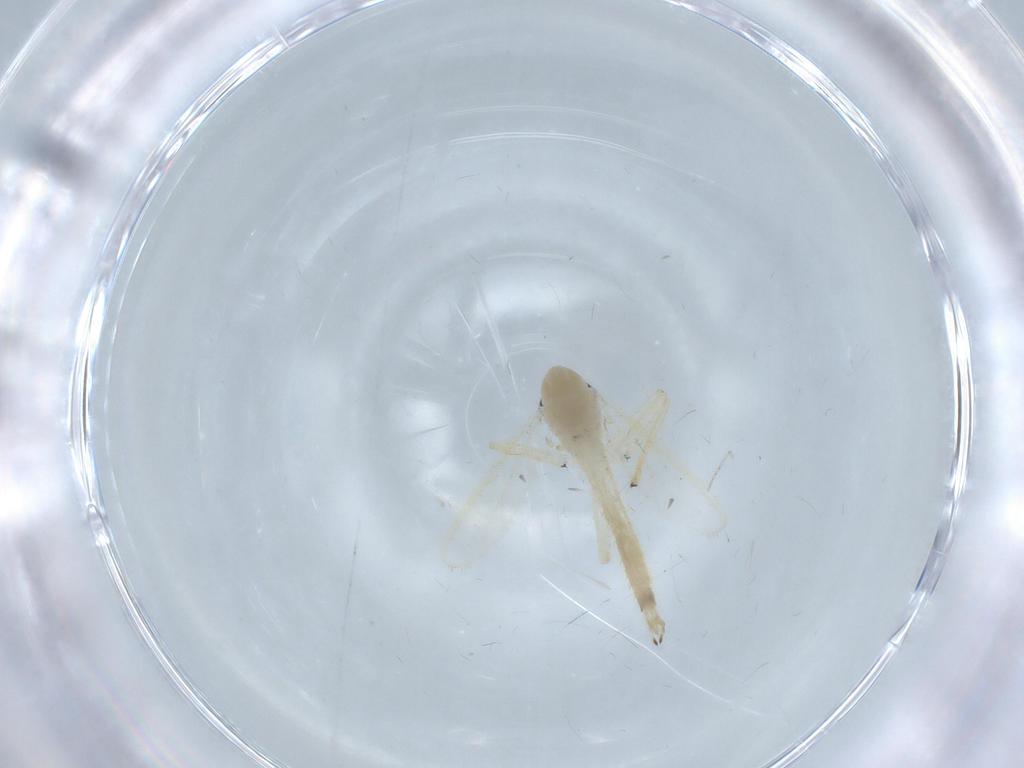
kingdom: Animalia
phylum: Arthropoda
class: Insecta
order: Diptera
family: Chironomidae
